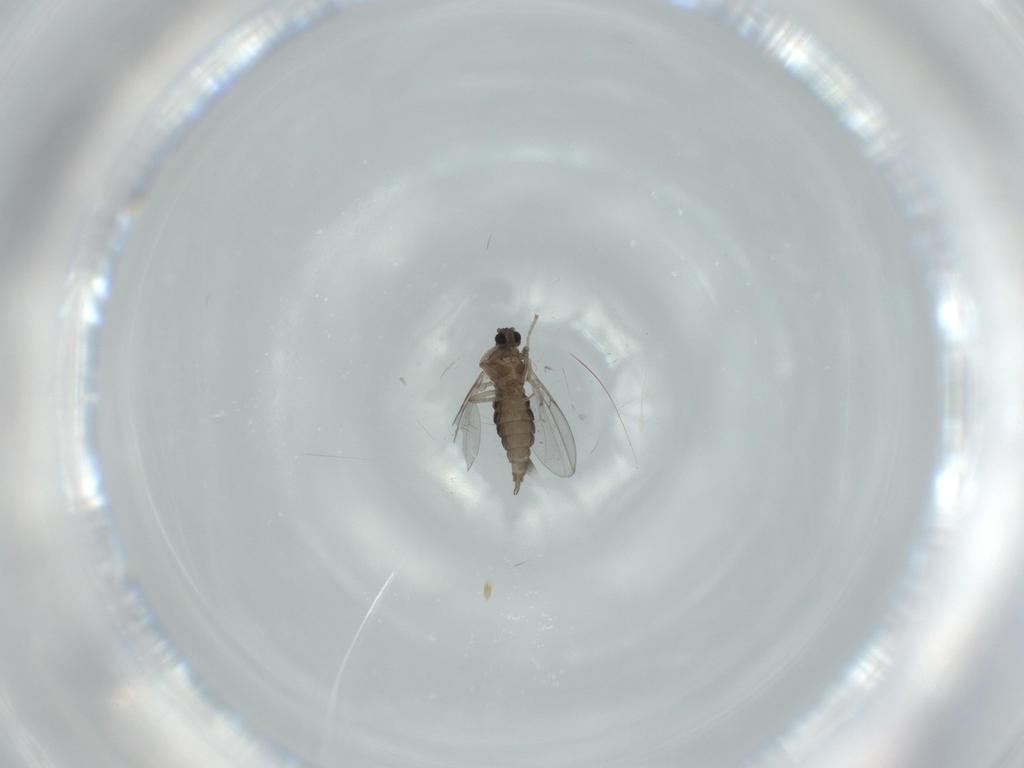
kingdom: Animalia
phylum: Arthropoda
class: Insecta
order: Diptera
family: Cecidomyiidae
